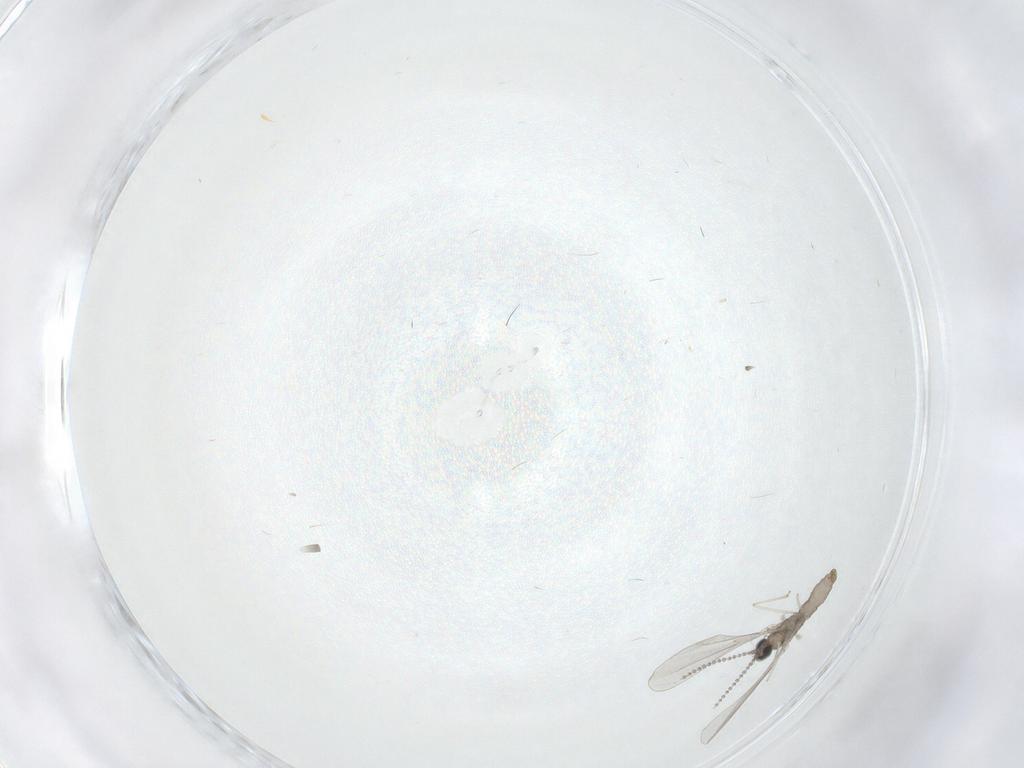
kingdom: Animalia
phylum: Arthropoda
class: Insecta
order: Diptera
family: Cecidomyiidae
